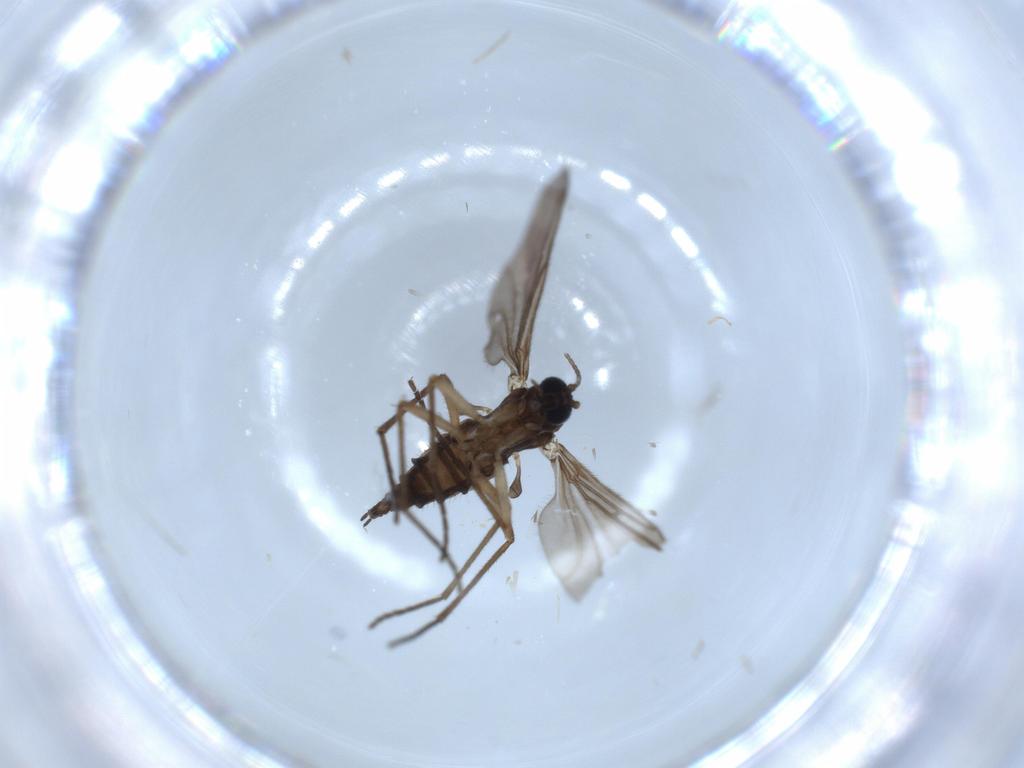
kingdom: Animalia
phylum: Arthropoda
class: Insecta
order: Diptera
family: Sciaridae
